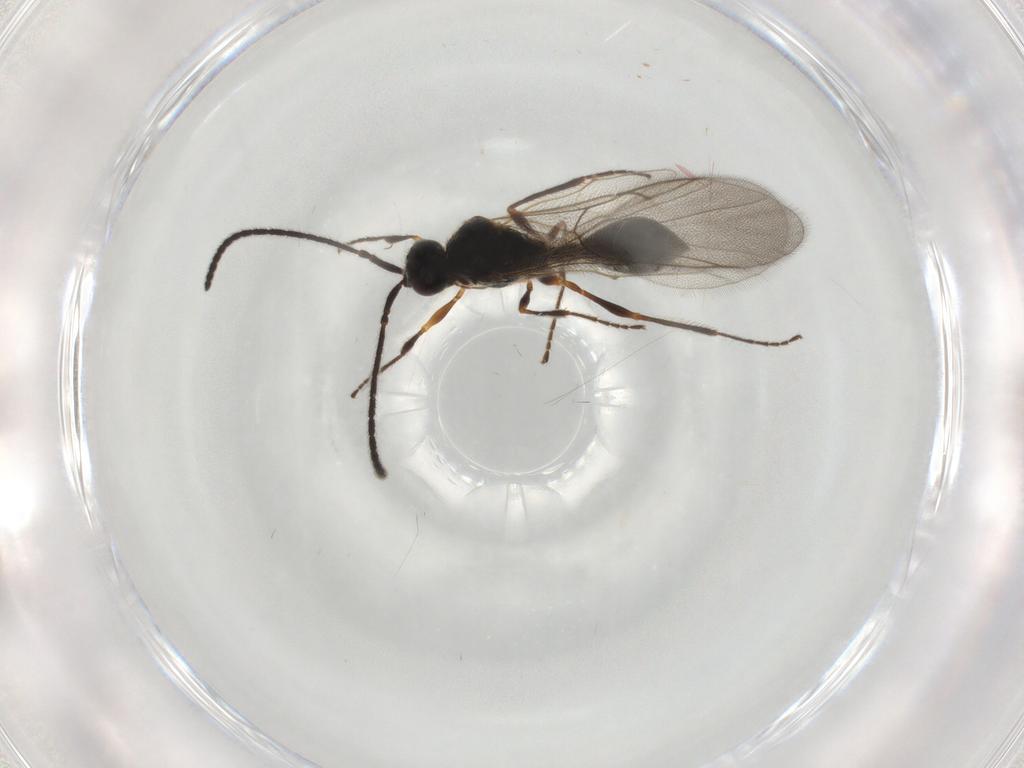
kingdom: Animalia
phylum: Arthropoda
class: Insecta
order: Hymenoptera
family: Diapriidae
